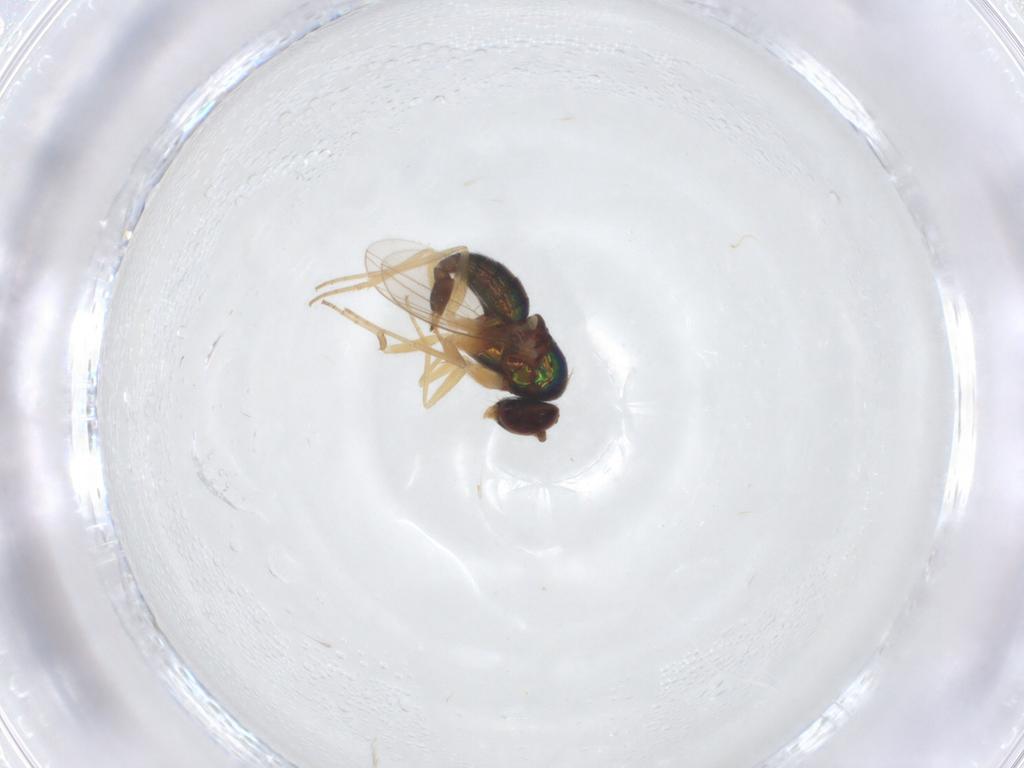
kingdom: Animalia
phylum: Arthropoda
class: Insecta
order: Diptera
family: Dolichopodidae
